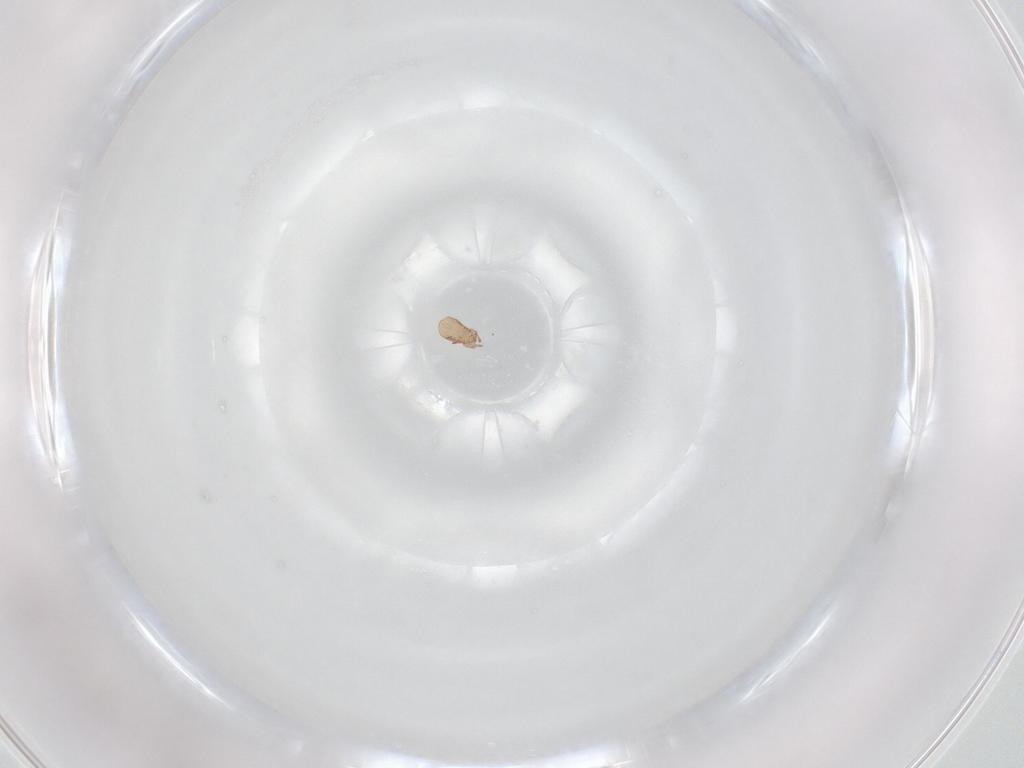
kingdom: Animalia
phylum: Arthropoda
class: Arachnida
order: Sarcoptiformes
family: Eremaeidae
